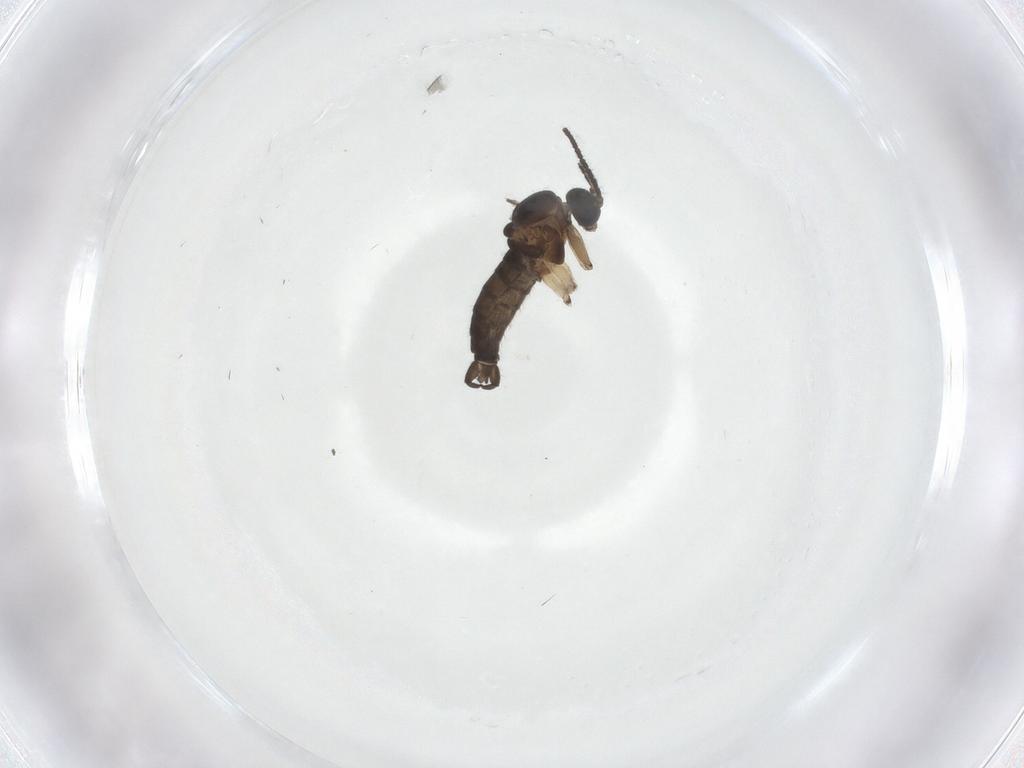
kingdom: Animalia
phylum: Arthropoda
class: Insecta
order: Diptera
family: Sciaridae
